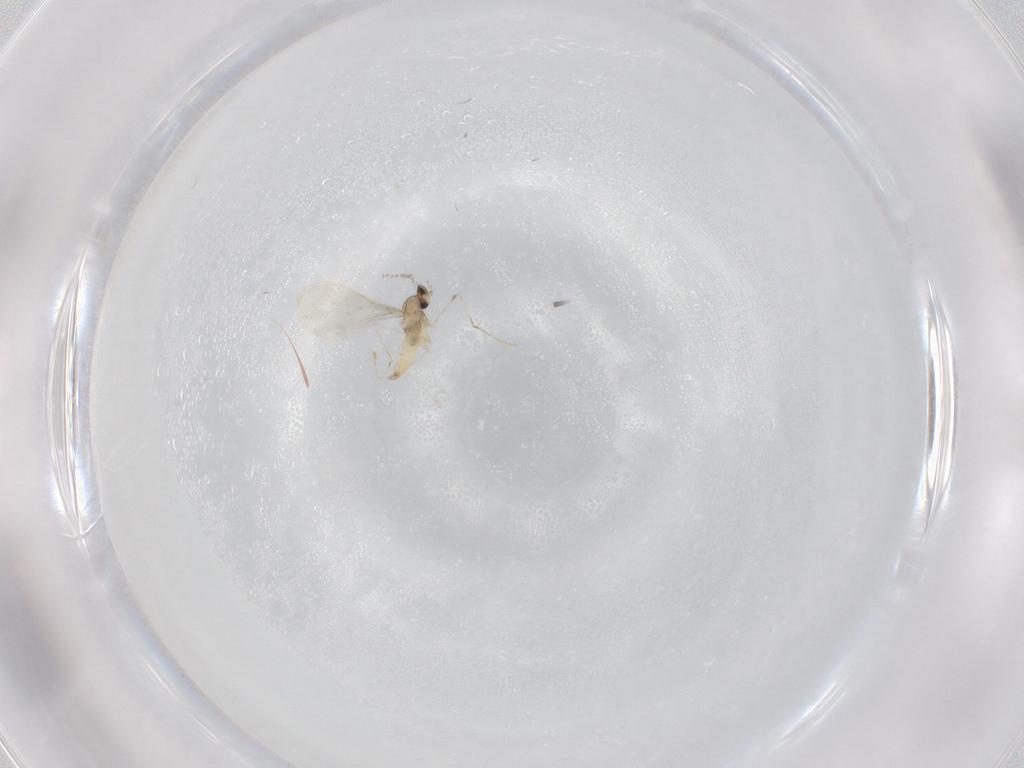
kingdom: Animalia
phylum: Arthropoda
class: Insecta
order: Diptera
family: Cecidomyiidae
